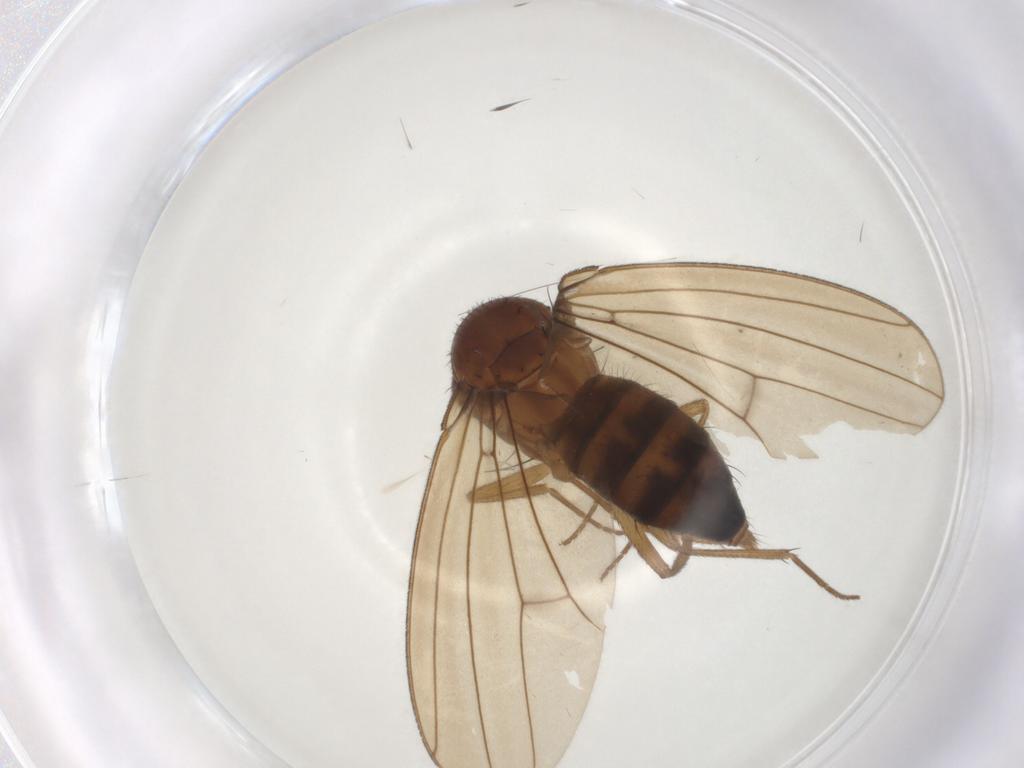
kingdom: Animalia
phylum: Arthropoda
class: Insecta
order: Diptera
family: Drosophilidae
